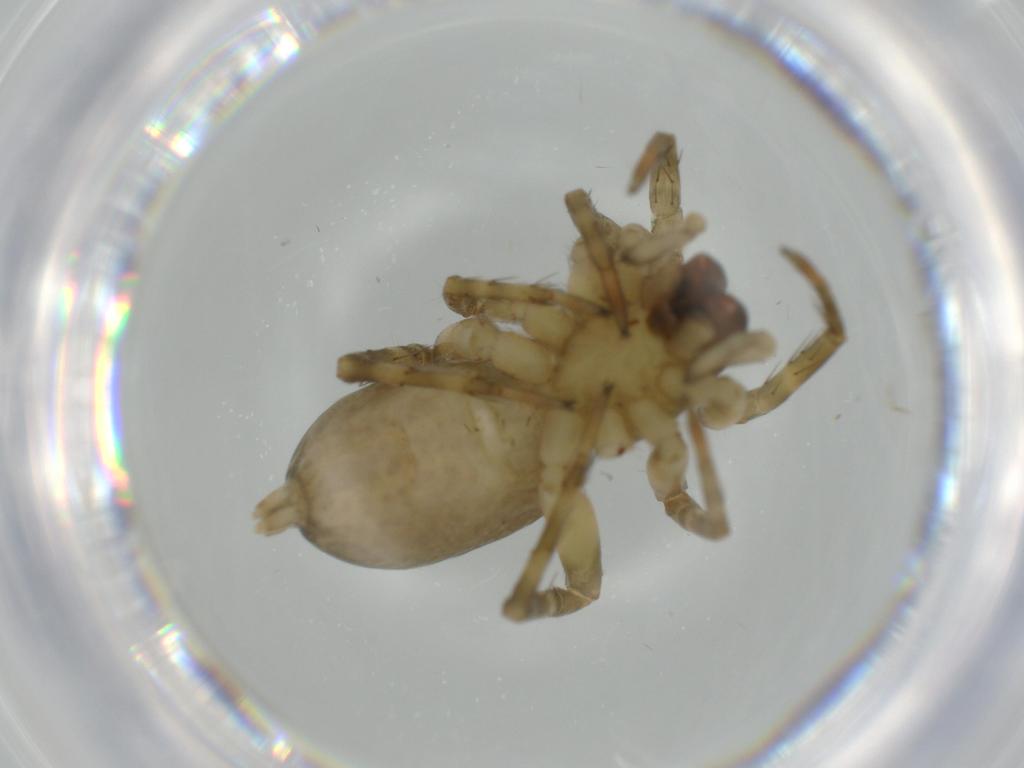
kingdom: Animalia
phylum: Arthropoda
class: Arachnida
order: Araneae
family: Anyphaenidae
